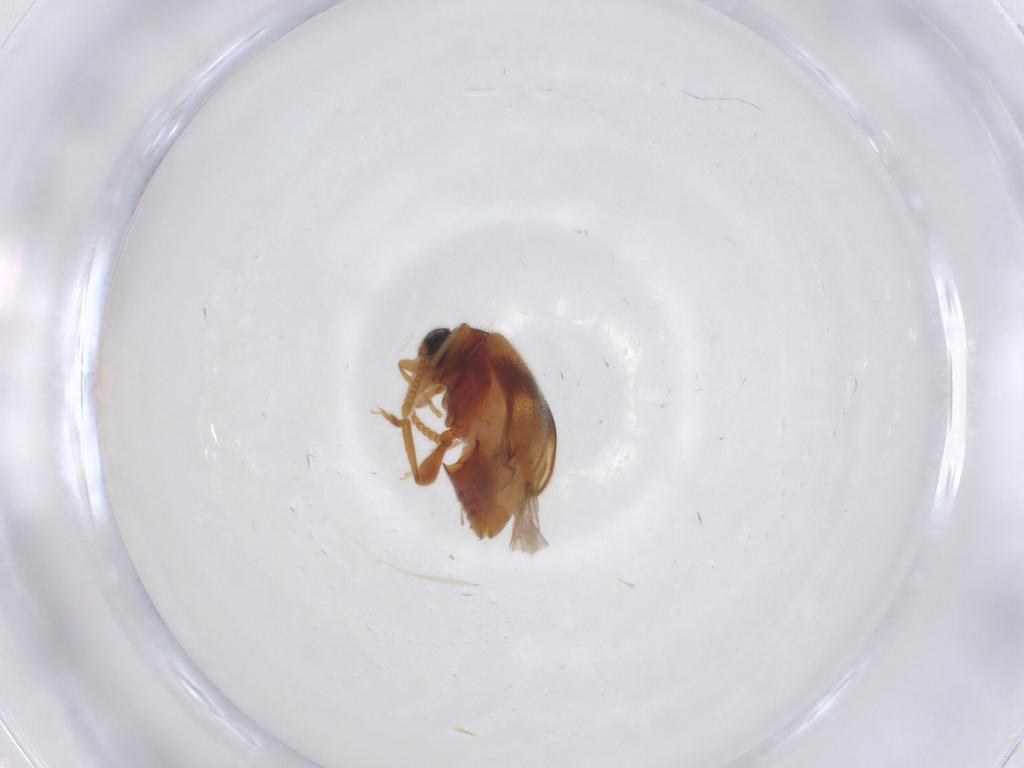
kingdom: Animalia
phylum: Arthropoda
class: Insecta
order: Coleoptera
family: Aderidae
